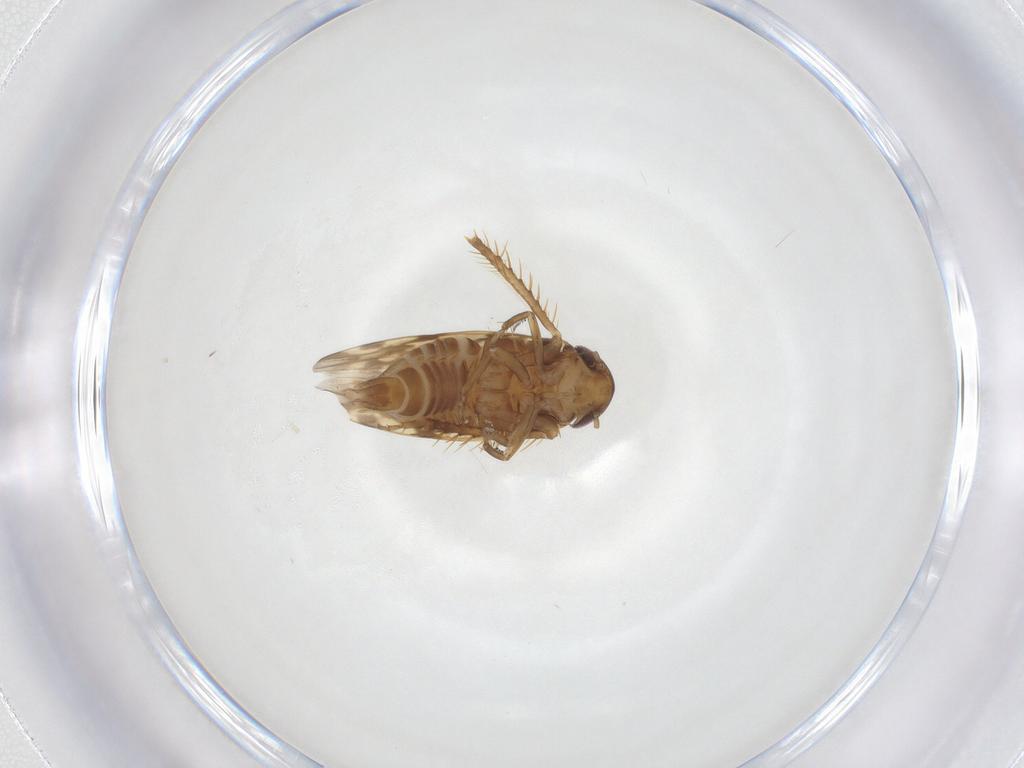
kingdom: Animalia
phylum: Arthropoda
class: Insecta
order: Hemiptera
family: Cicadellidae
